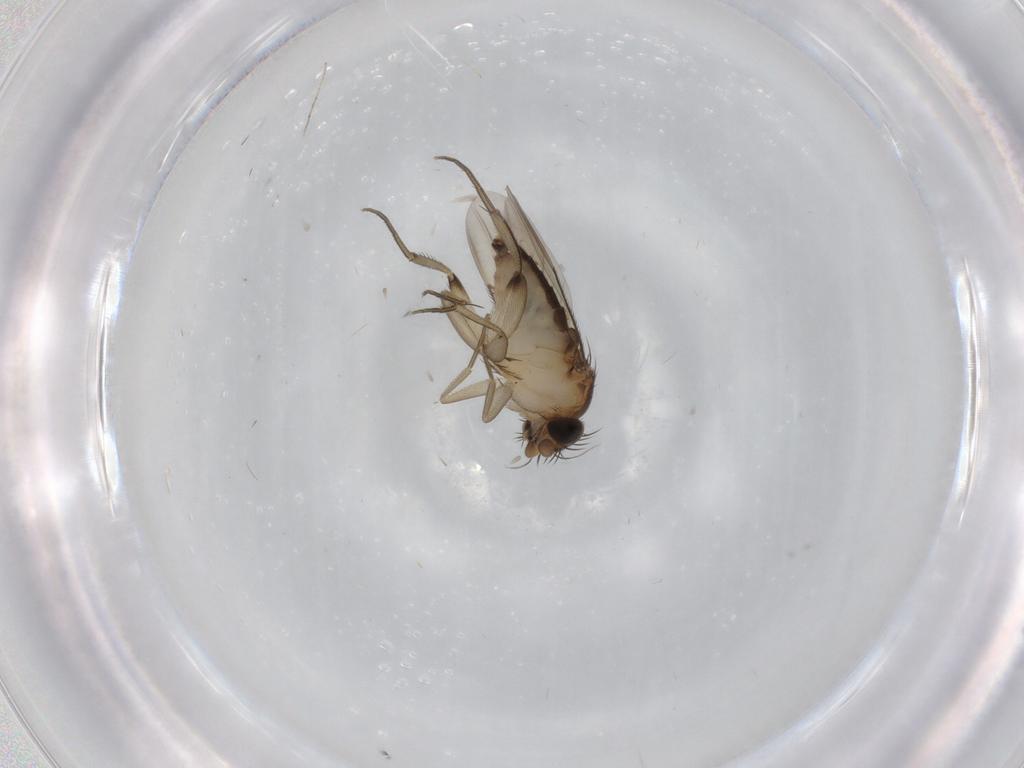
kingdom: Animalia
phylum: Arthropoda
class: Insecta
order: Diptera
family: Phoridae
